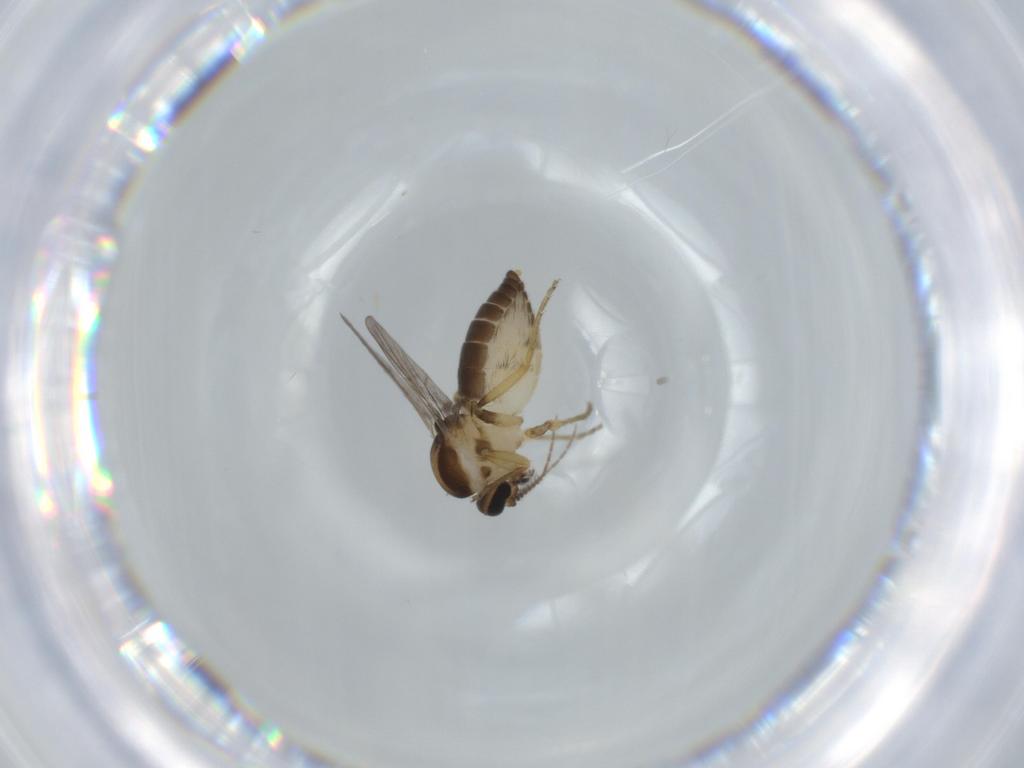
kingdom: Animalia
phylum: Arthropoda
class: Insecta
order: Diptera
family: Ceratopogonidae
